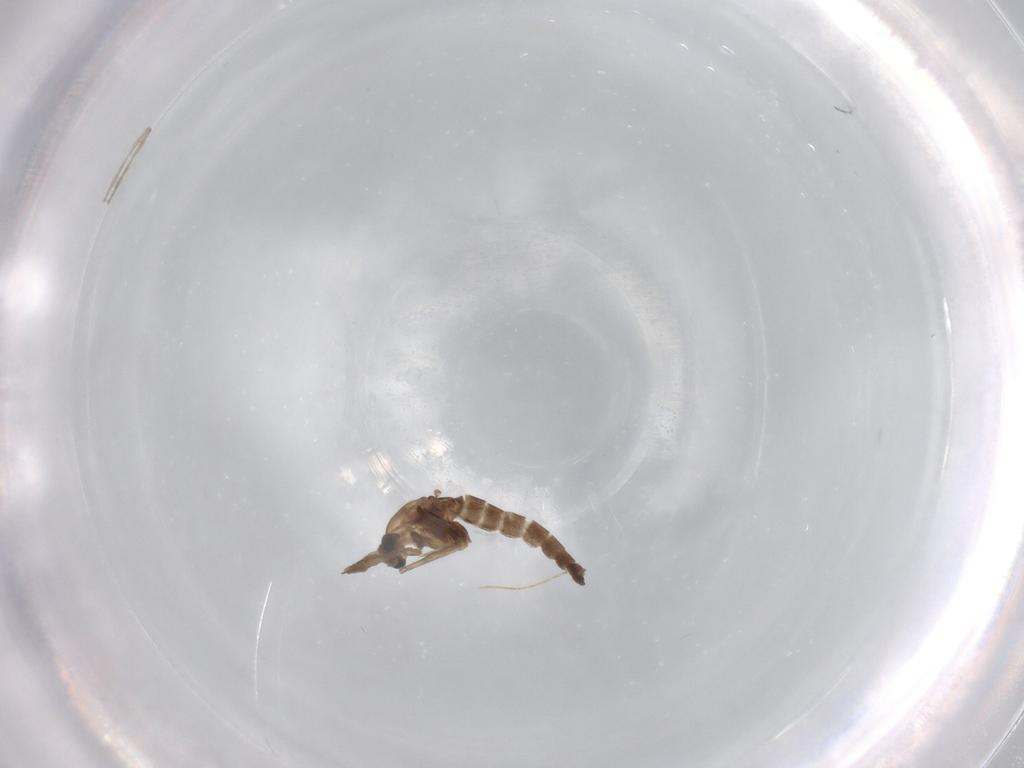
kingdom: Animalia
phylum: Arthropoda
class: Insecta
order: Diptera
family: Chironomidae
